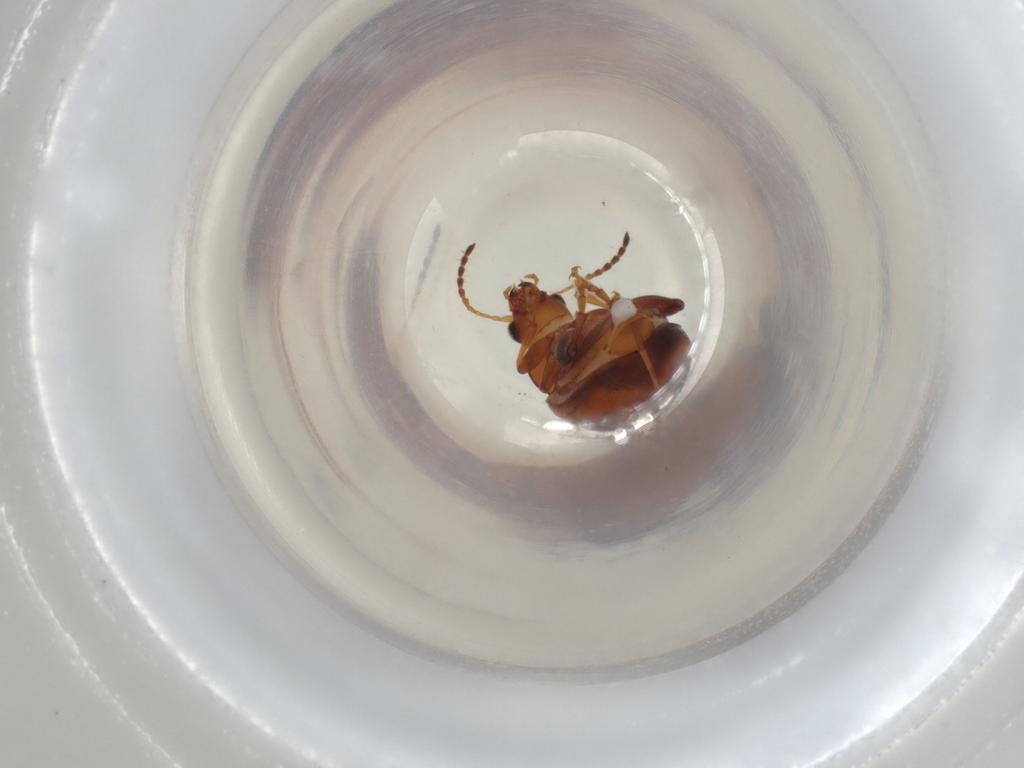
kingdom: Animalia
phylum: Arthropoda
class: Insecta
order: Coleoptera
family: Chrysomelidae
